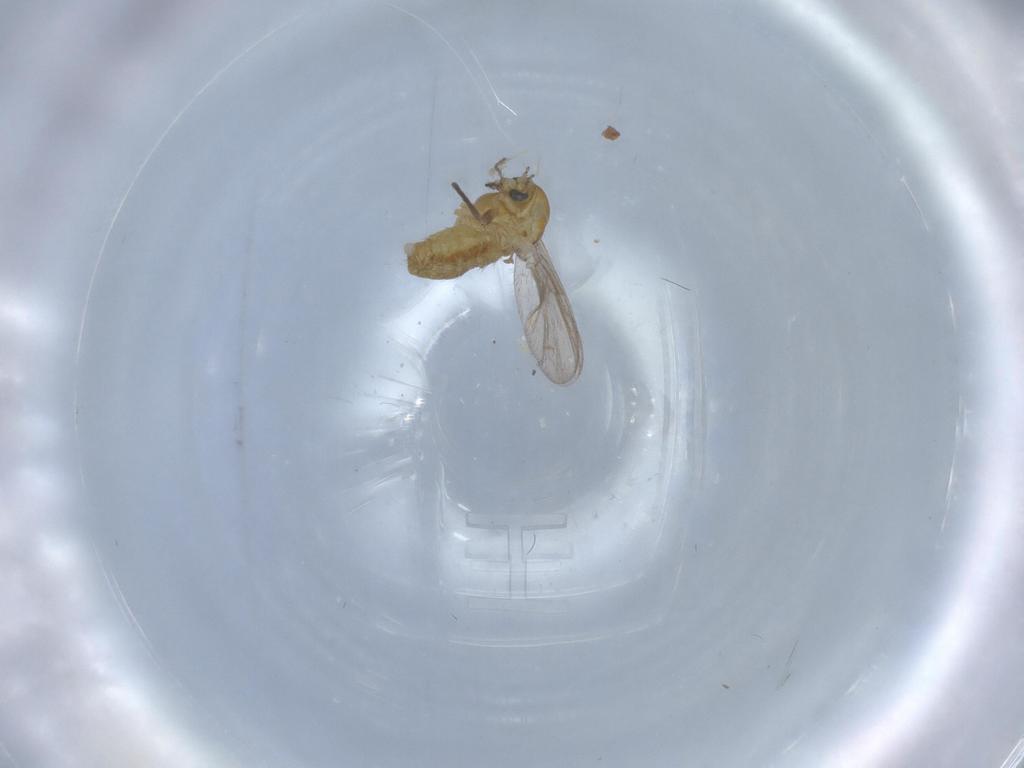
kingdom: Animalia
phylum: Arthropoda
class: Insecta
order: Diptera
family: Chironomidae
